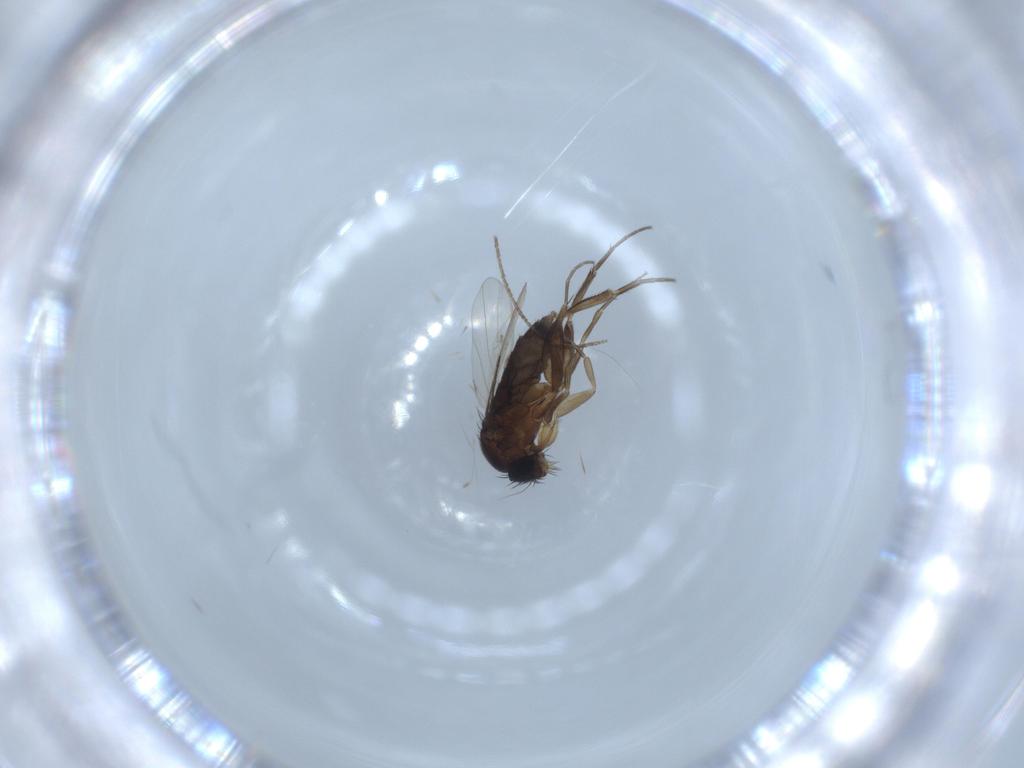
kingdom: Animalia
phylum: Arthropoda
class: Insecta
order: Diptera
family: Phoridae
